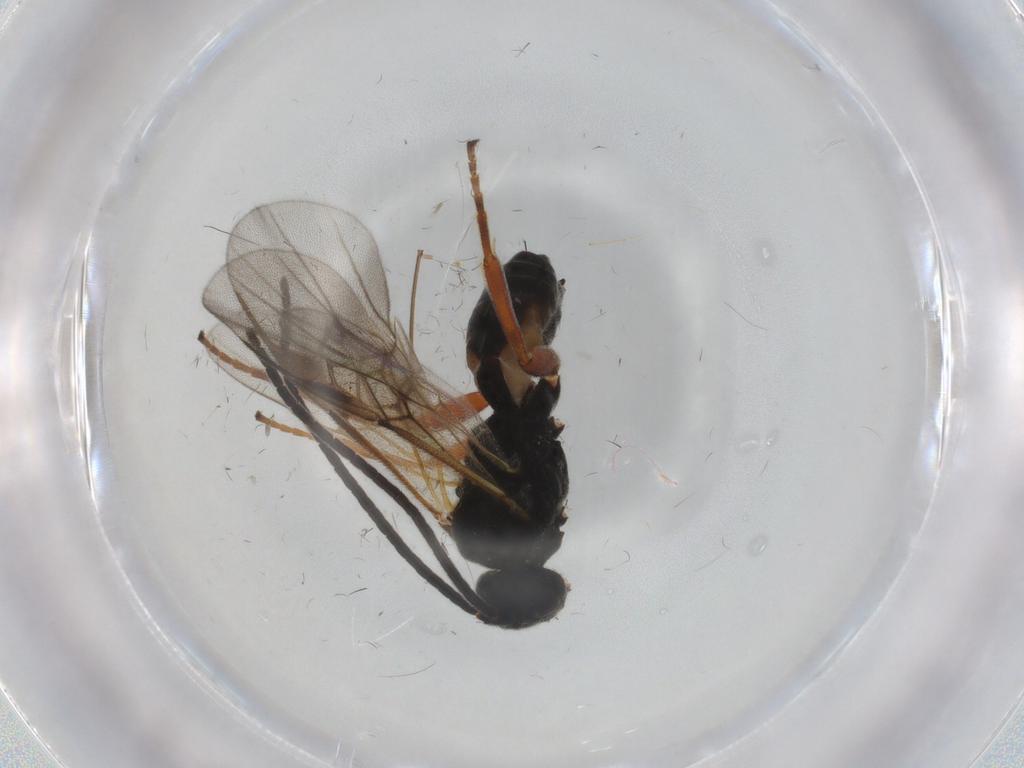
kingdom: Animalia
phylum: Arthropoda
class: Insecta
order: Hymenoptera
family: Braconidae
